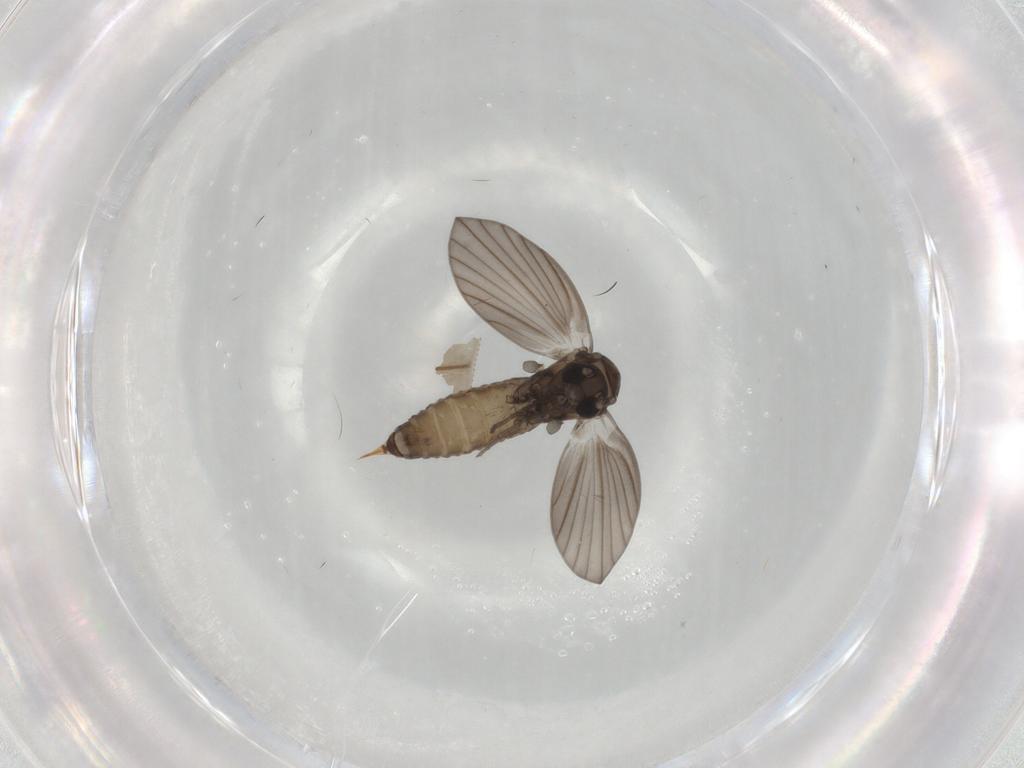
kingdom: Animalia
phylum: Arthropoda
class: Insecta
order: Diptera
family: Psychodidae
